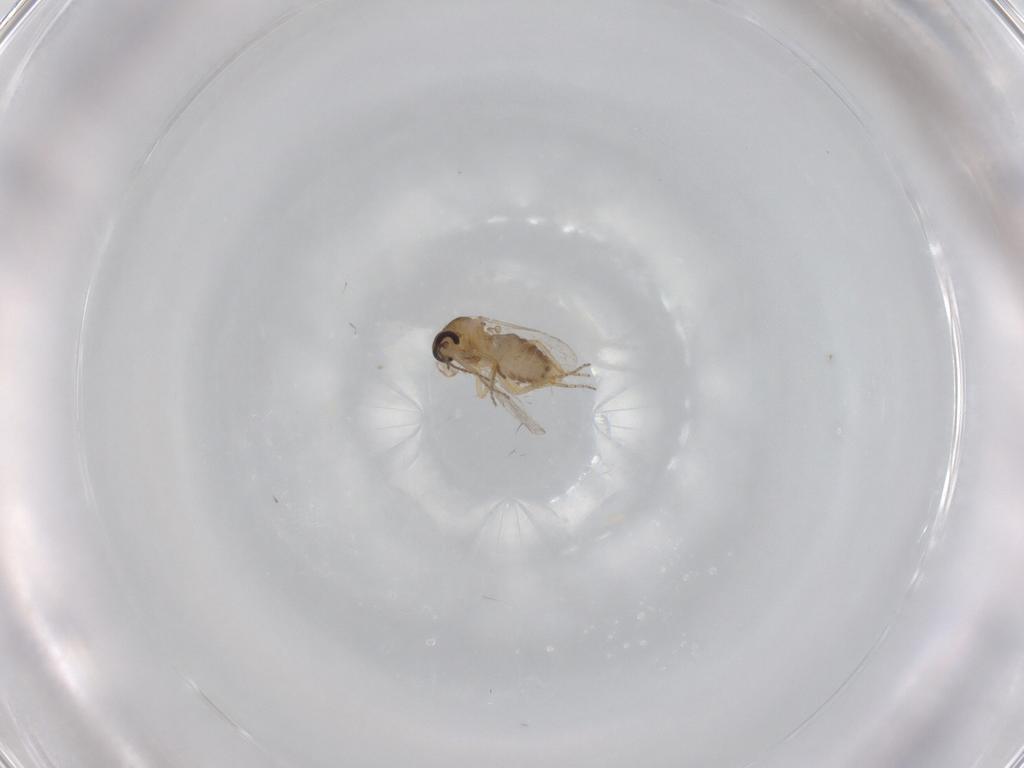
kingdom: Animalia
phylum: Arthropoda
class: Insecta
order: Diptera
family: Ceratopogonidae
